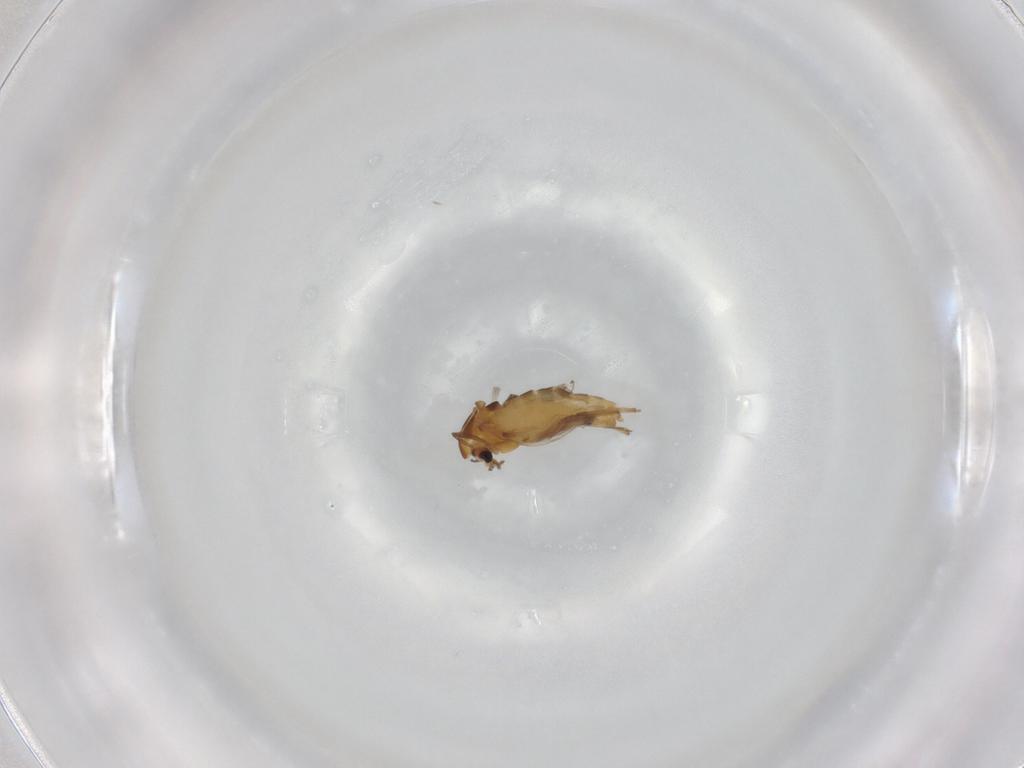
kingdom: Animalia
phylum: Arthropoda
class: Insecta
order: Diptera
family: Chironomidae
